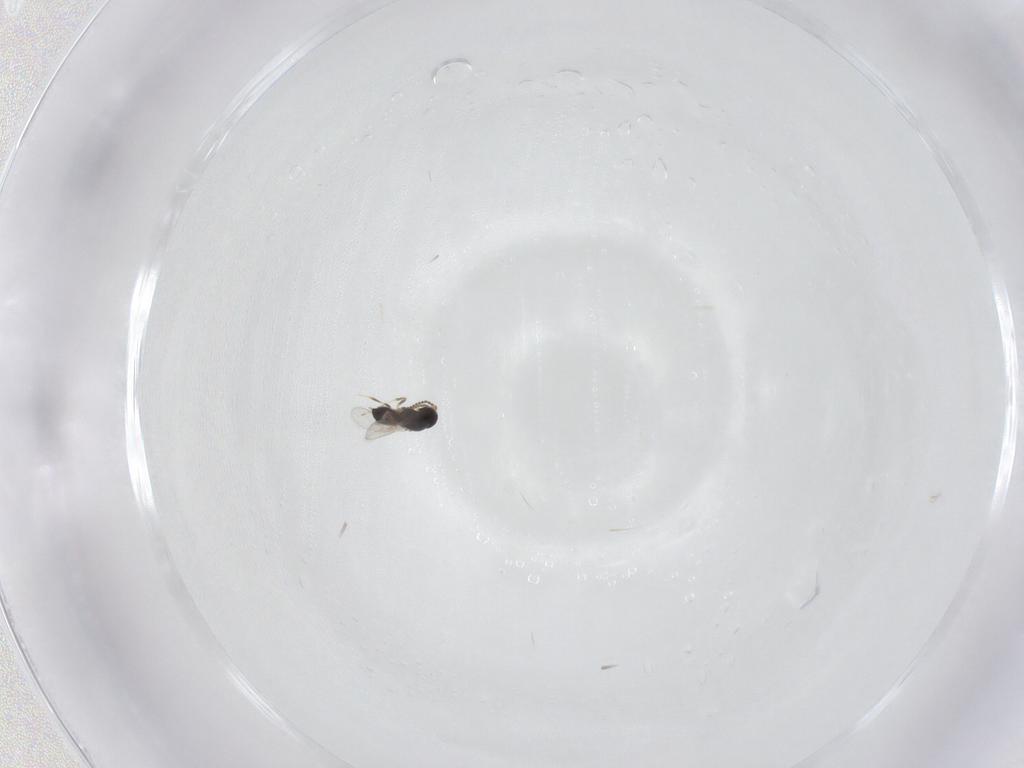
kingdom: Animalia
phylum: Arthropoda
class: Insecta
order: Hymenoptera
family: Scelionidae
